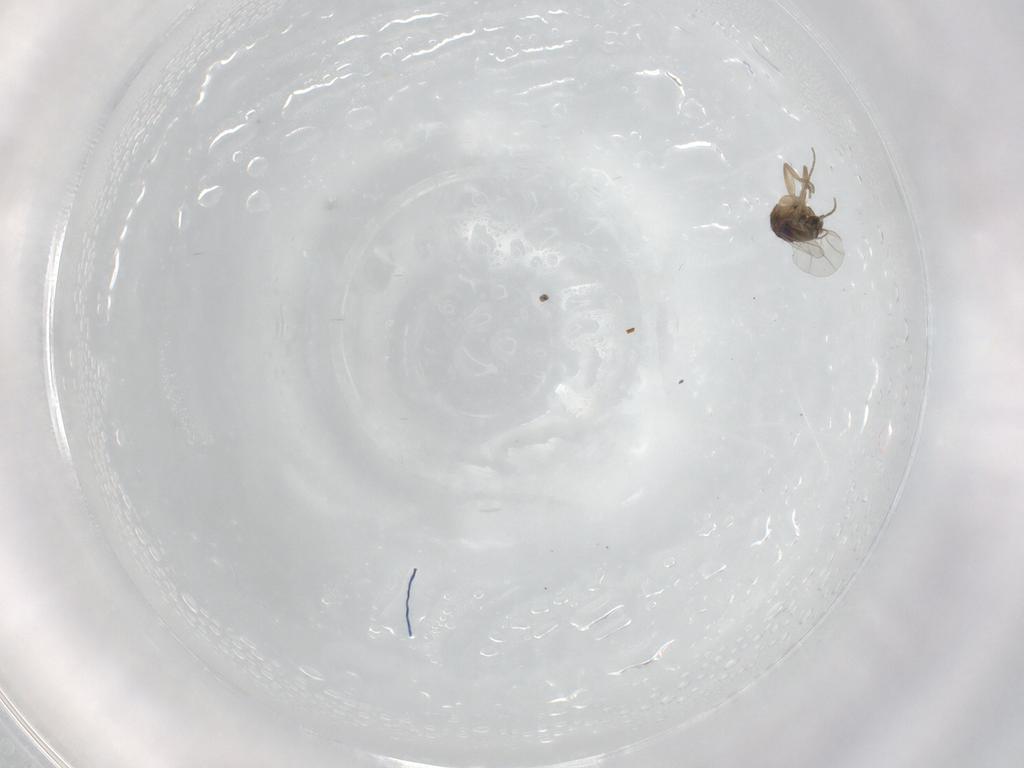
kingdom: Animalia
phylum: Arthropoda
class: Insecta
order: Diptera
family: Phoridae
